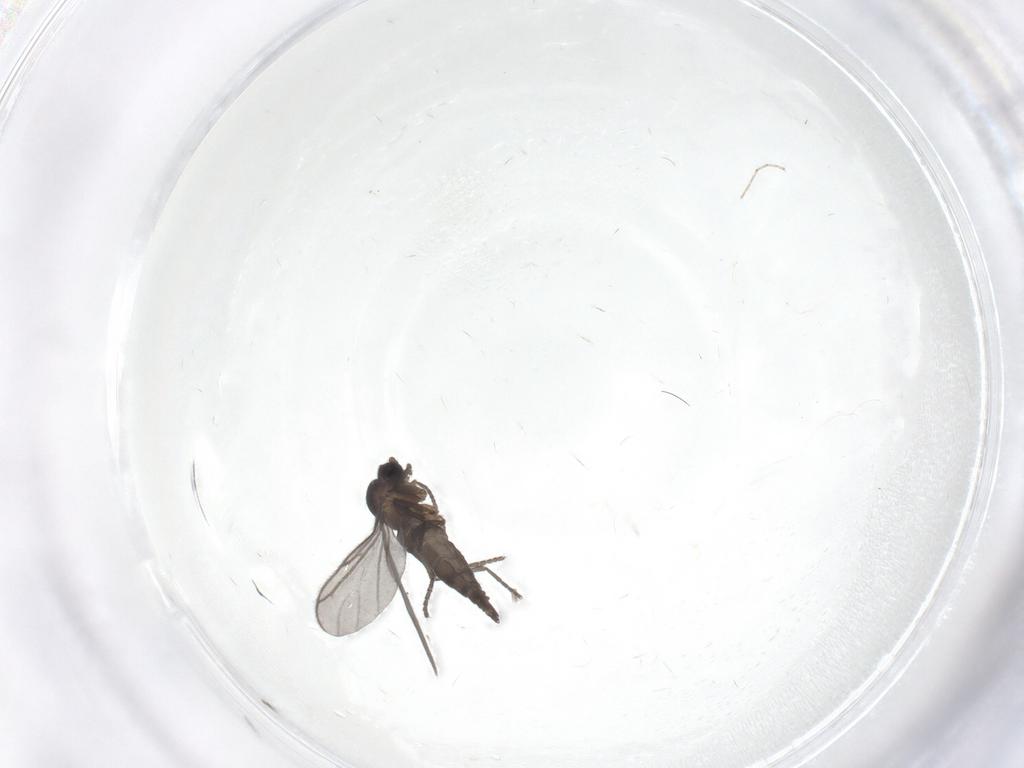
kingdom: Animalia
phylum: Arthropoda
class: Insecta
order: Diptera
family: Cecidomyiidae
